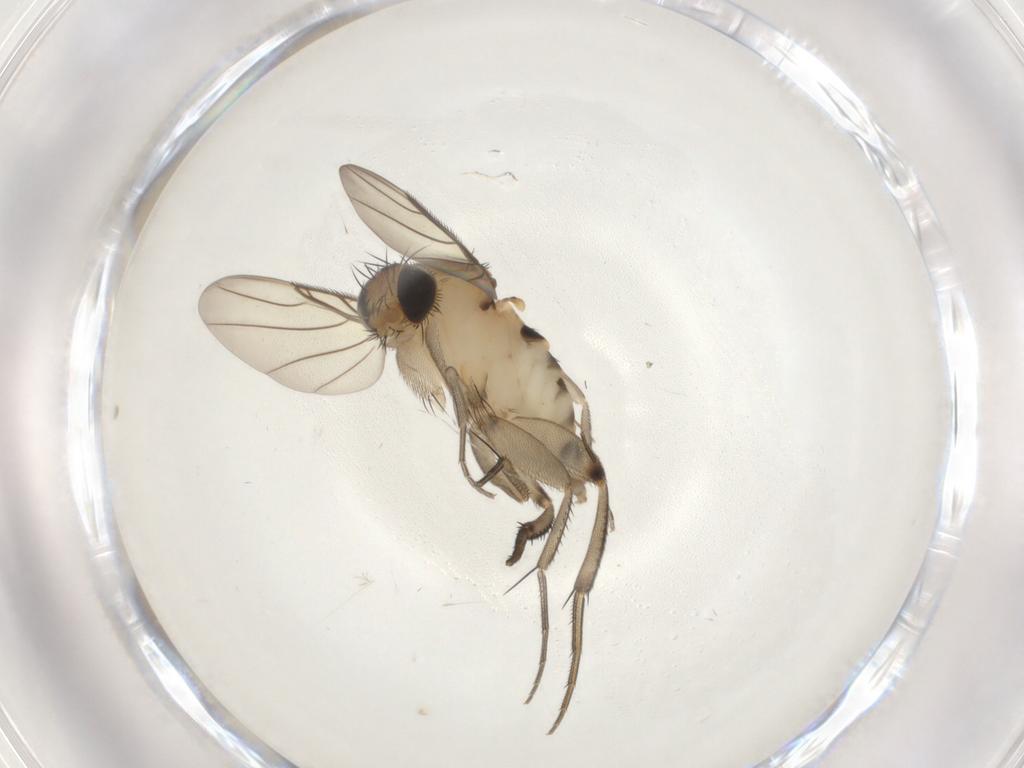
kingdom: Animalia
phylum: Arthropoda
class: Insecta
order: Diptera
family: Phoridae
